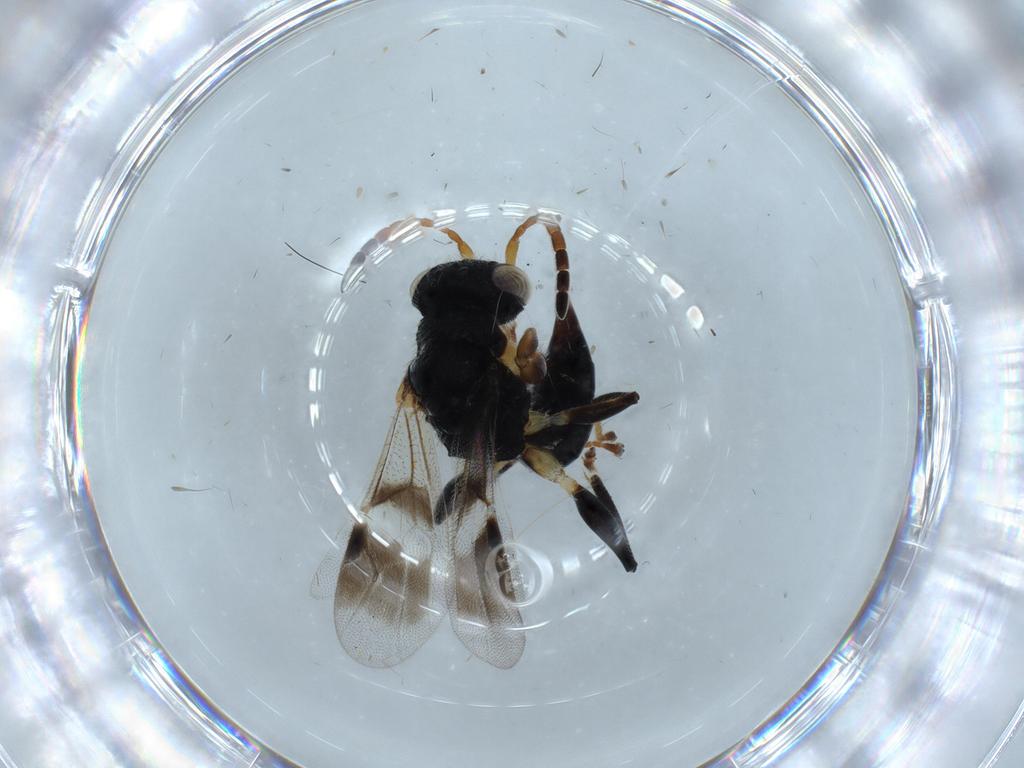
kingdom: Animalia
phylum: Arthropoda
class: Insecta
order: Hymenoptera
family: Dryinidae
